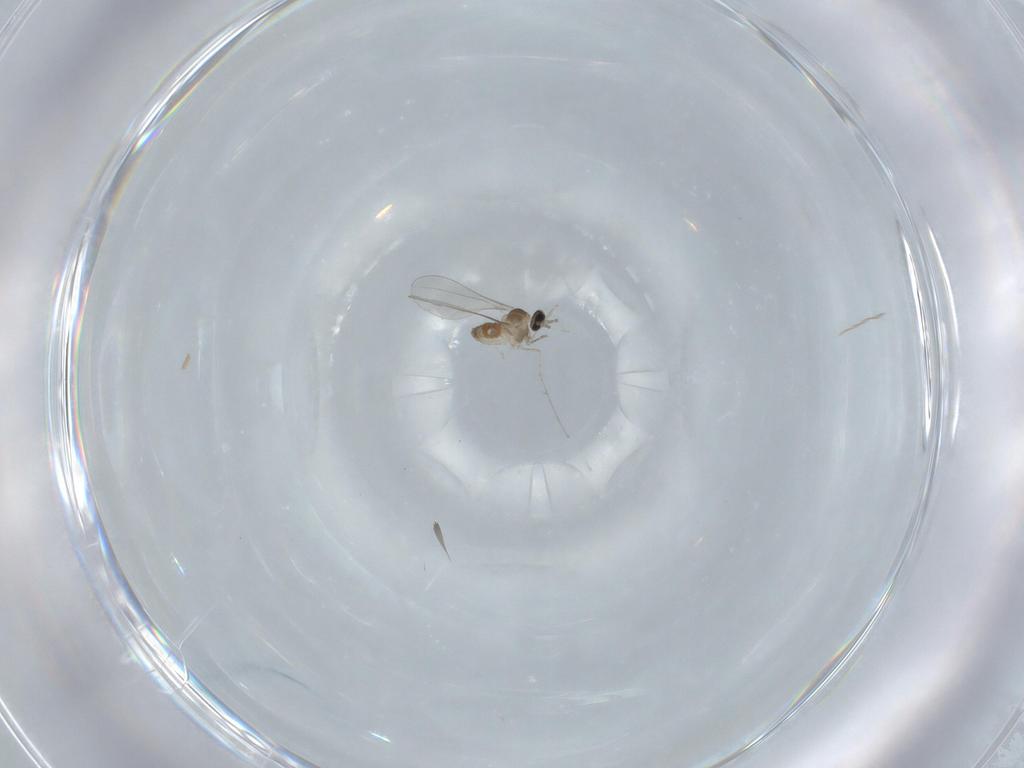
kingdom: Animalia
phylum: Arthropoda
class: Insecta
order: Diptera
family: Cecidomyiidae
